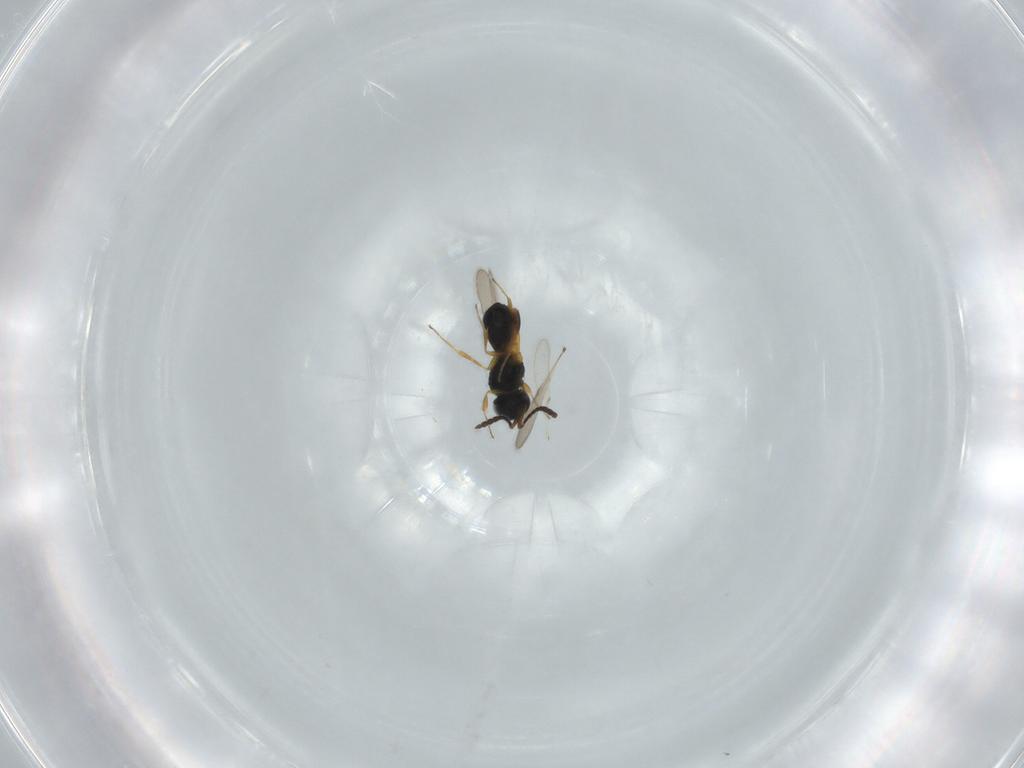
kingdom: Animalia
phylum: Arthropoda
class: Insecta
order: Hymenoptera
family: Scelionidae
